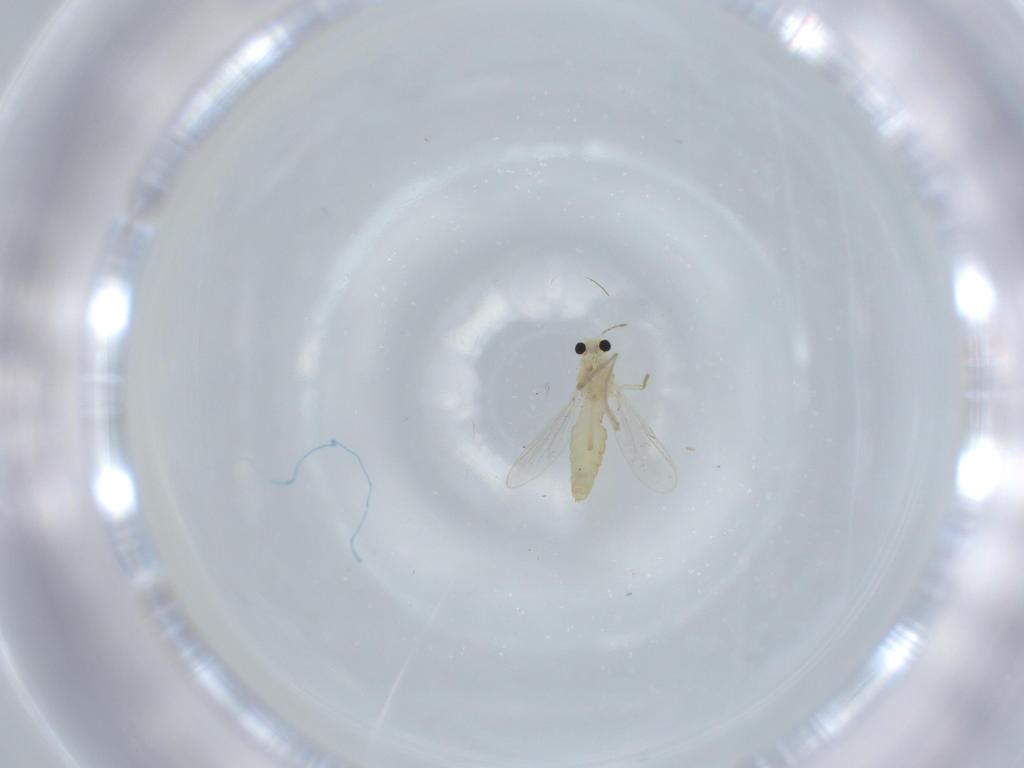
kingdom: Animalia
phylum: Arthropoda
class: Insecta
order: Diptera
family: Chironomidae
